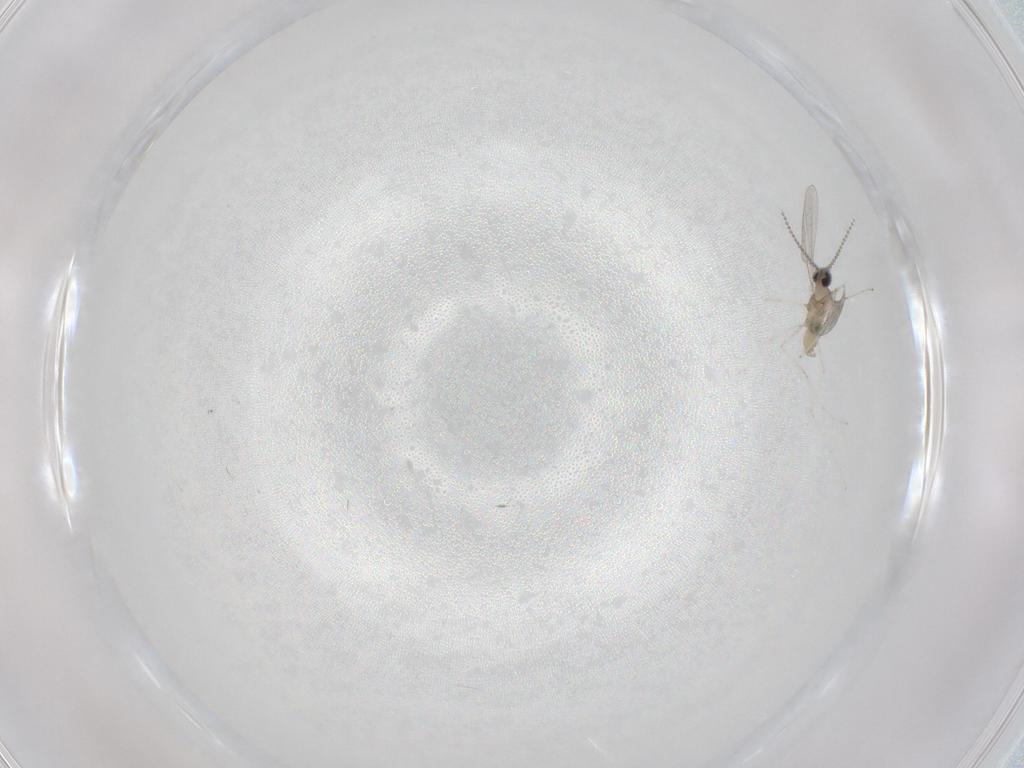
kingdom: Animalia
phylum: Arthropoda
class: Insecta
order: Diptera
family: Cecidomyiidae
